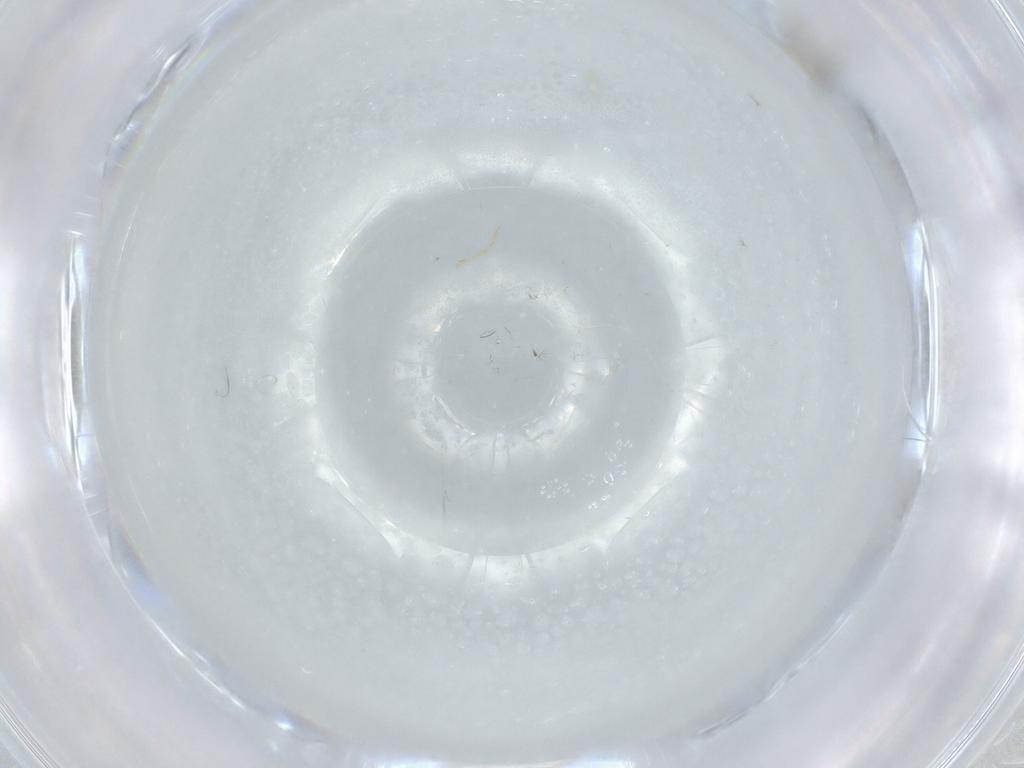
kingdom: Animalia
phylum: Arthropoda
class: Insecta
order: Diptera
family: Cecidomyiidae
